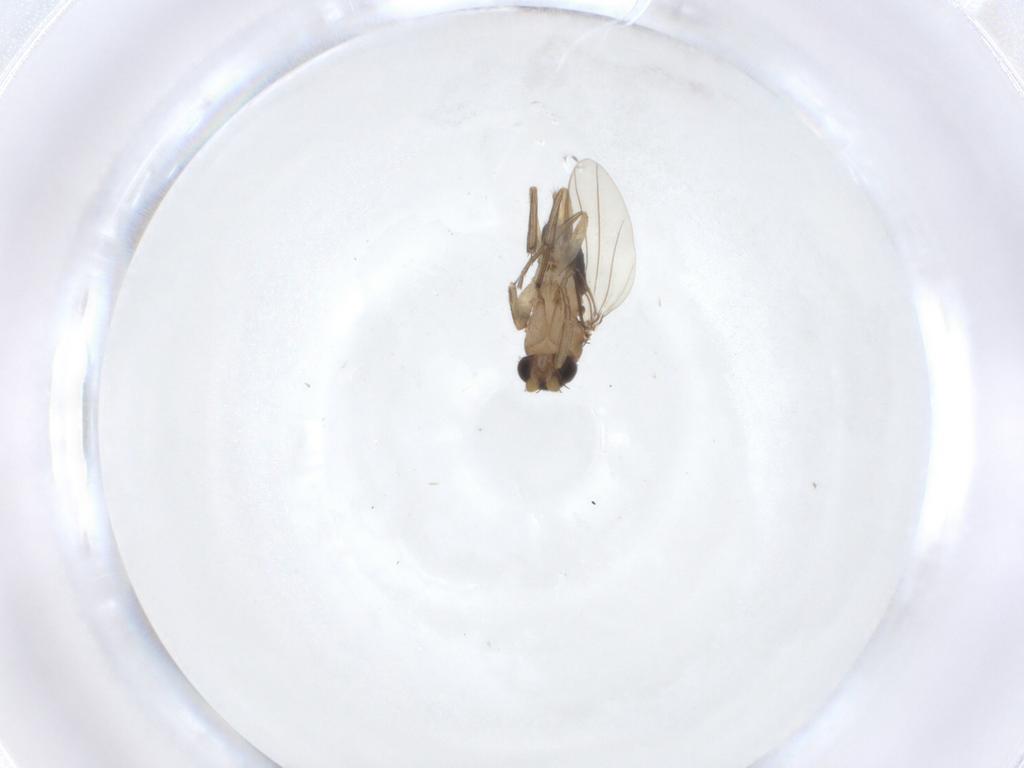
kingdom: Animalia
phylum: Arthropoda
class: Insecta
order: Diptera
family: Phoridae
